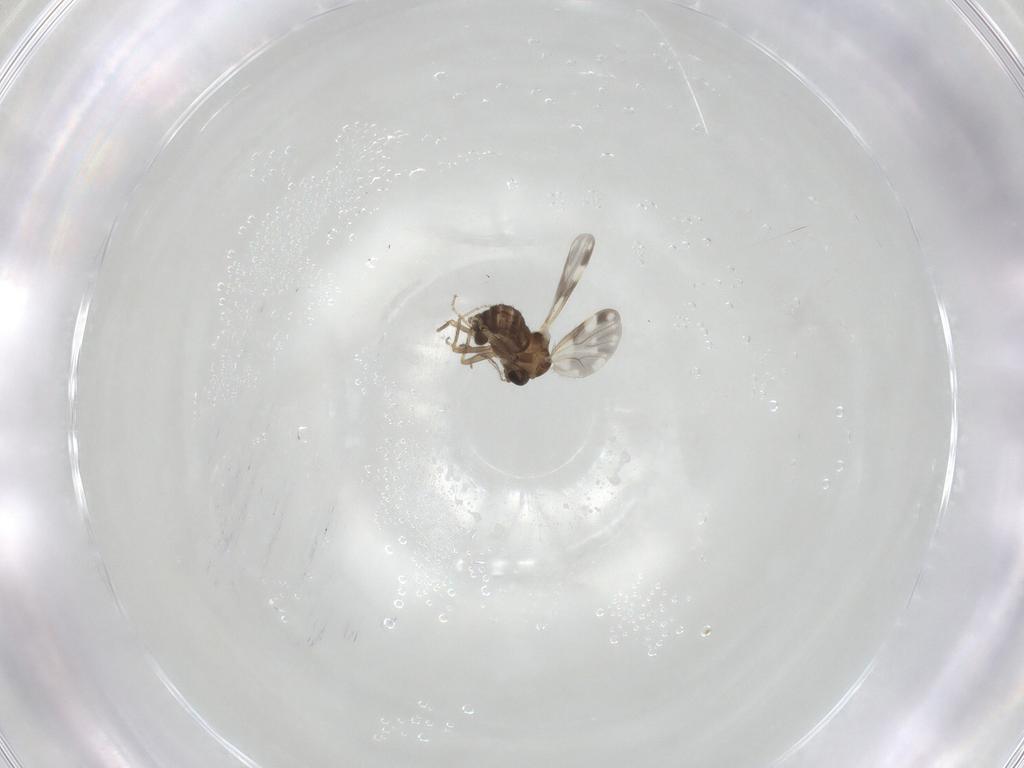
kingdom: Animalia
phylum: Arthropoda
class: Insecta
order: Diptera
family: Ceratopogonidae
